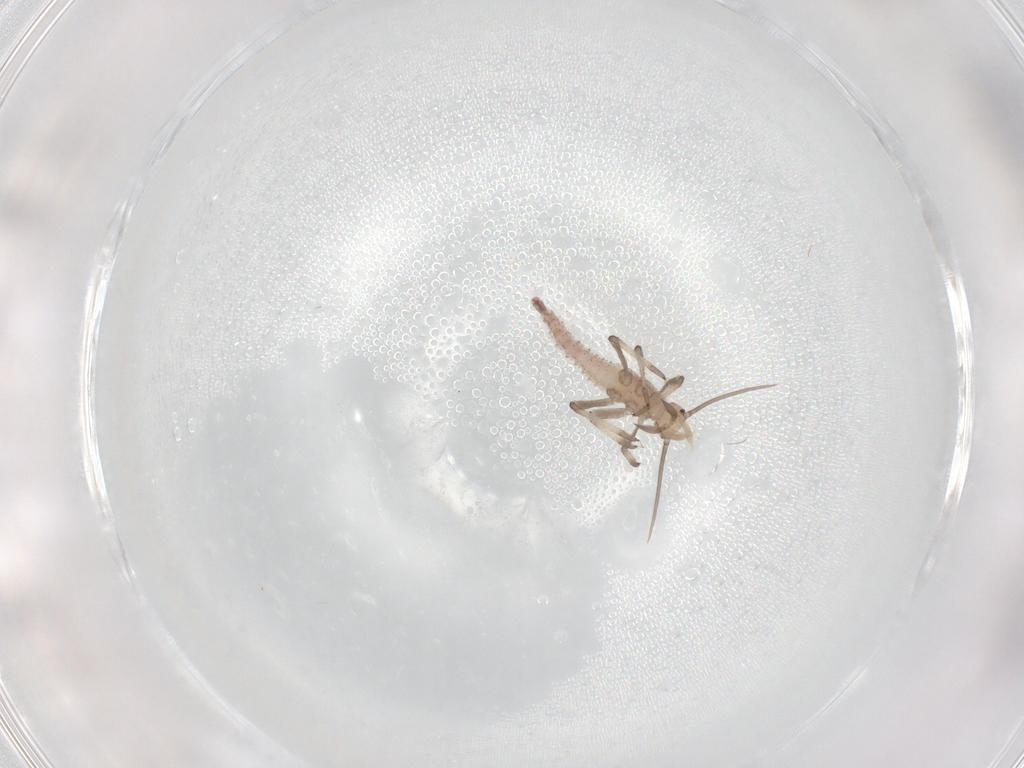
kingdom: Animalia
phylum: Arthropoda
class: Insecta
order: Neuroptera
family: Hemerobiidae
